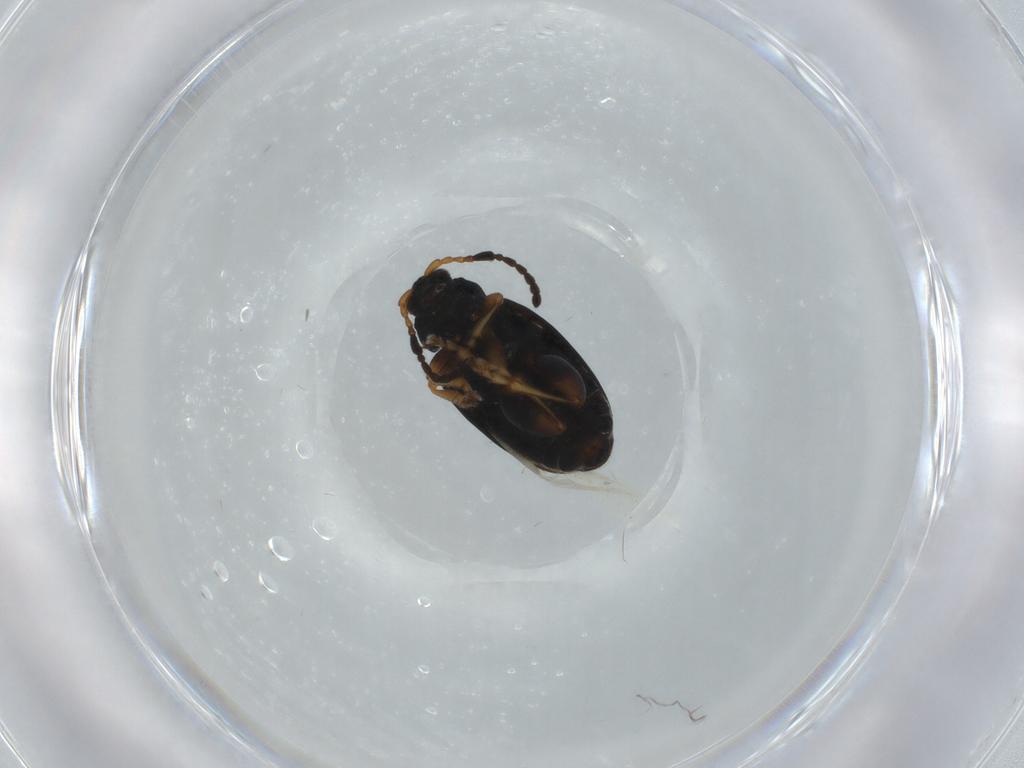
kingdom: Animalia
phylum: Arthropoda
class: Insecta
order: Coleoptera
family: Chrysomelidae
